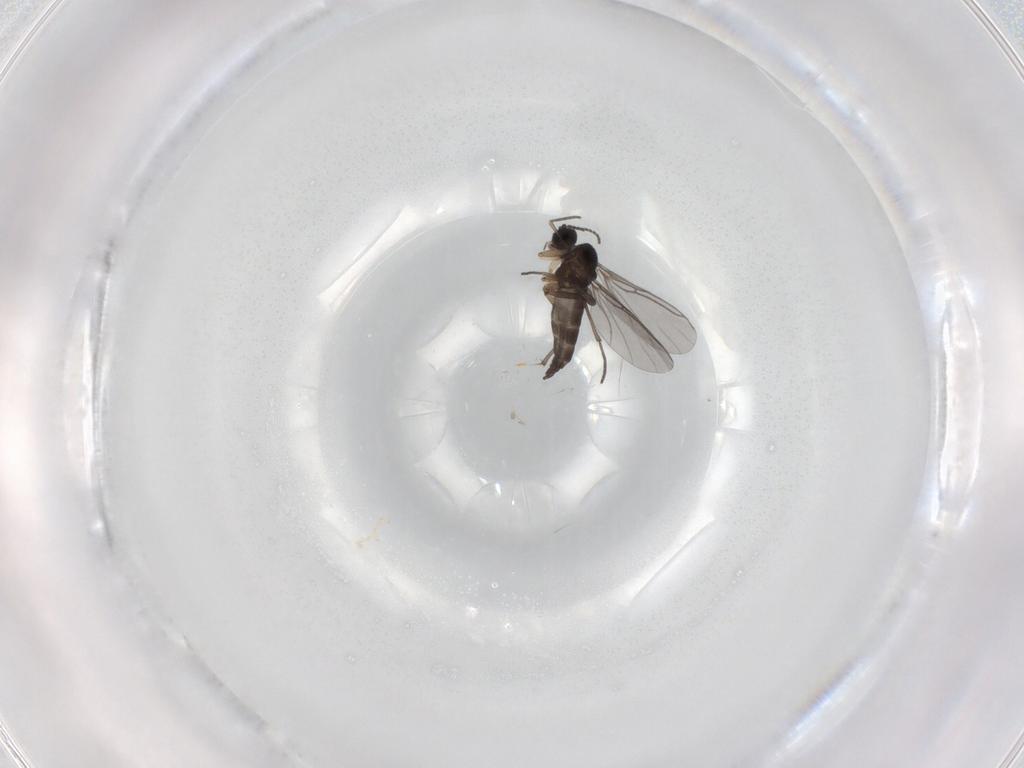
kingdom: Animalia
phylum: Arthropoda
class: Insecta
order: Diptera
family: Sciaridae
